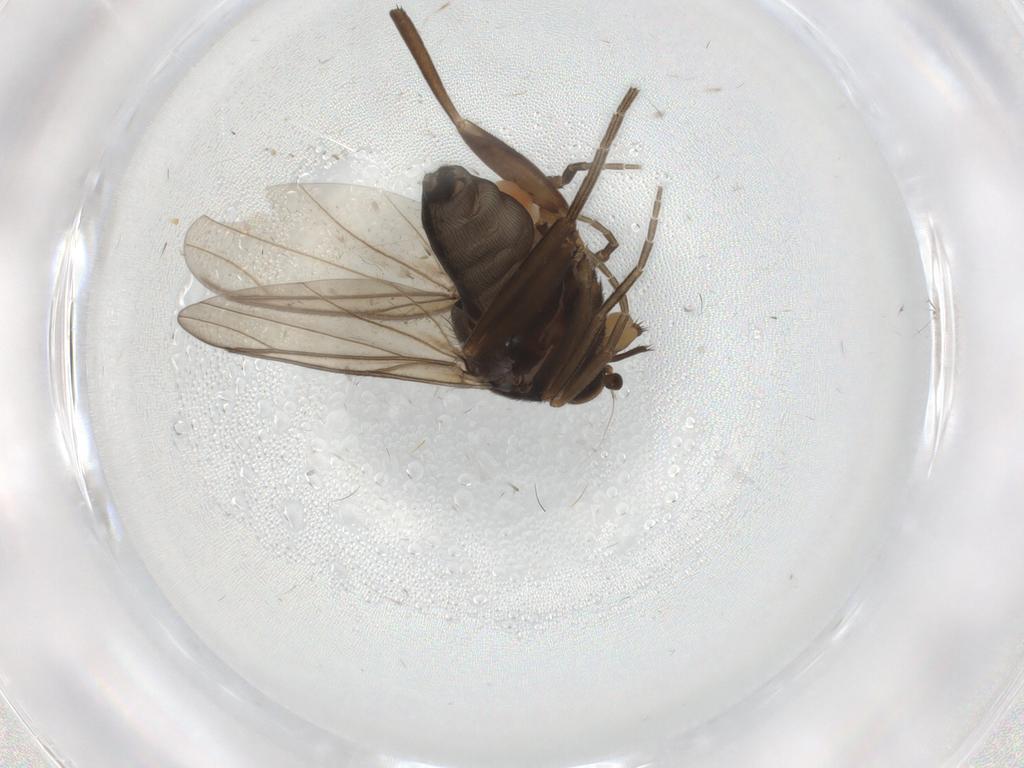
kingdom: Animalia
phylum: Arthropoda
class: Insecta
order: Diptera
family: Phoridae
